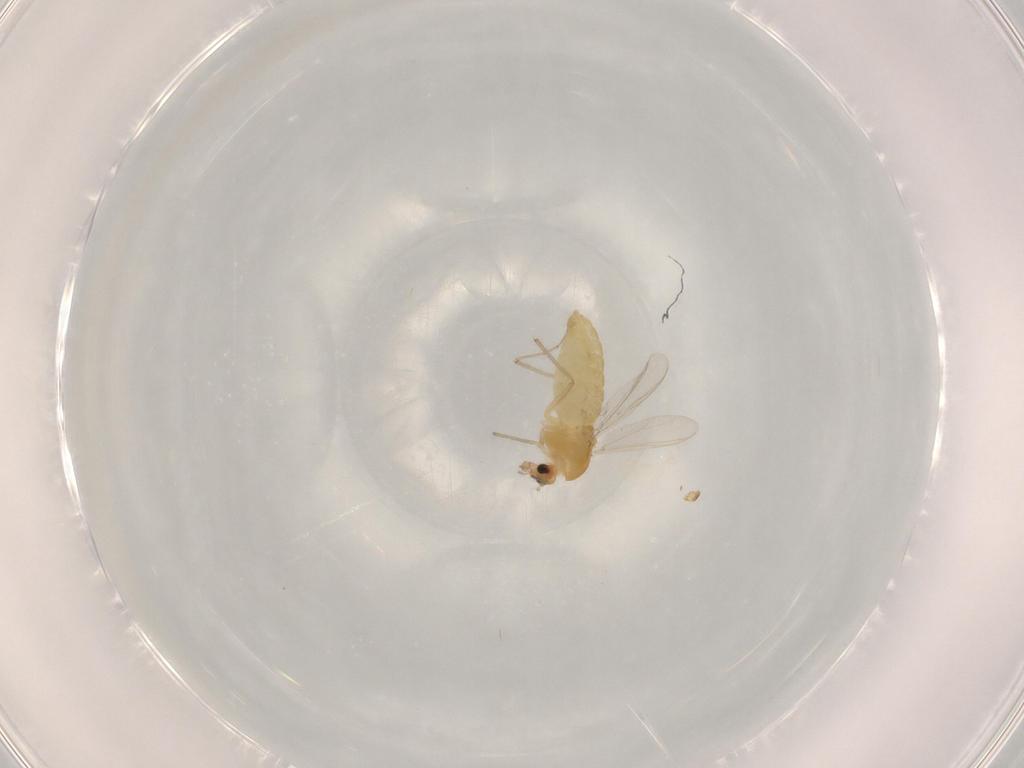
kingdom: Animalia
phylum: Arthropoda
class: Insecta
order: Diptera
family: Chironomidae
